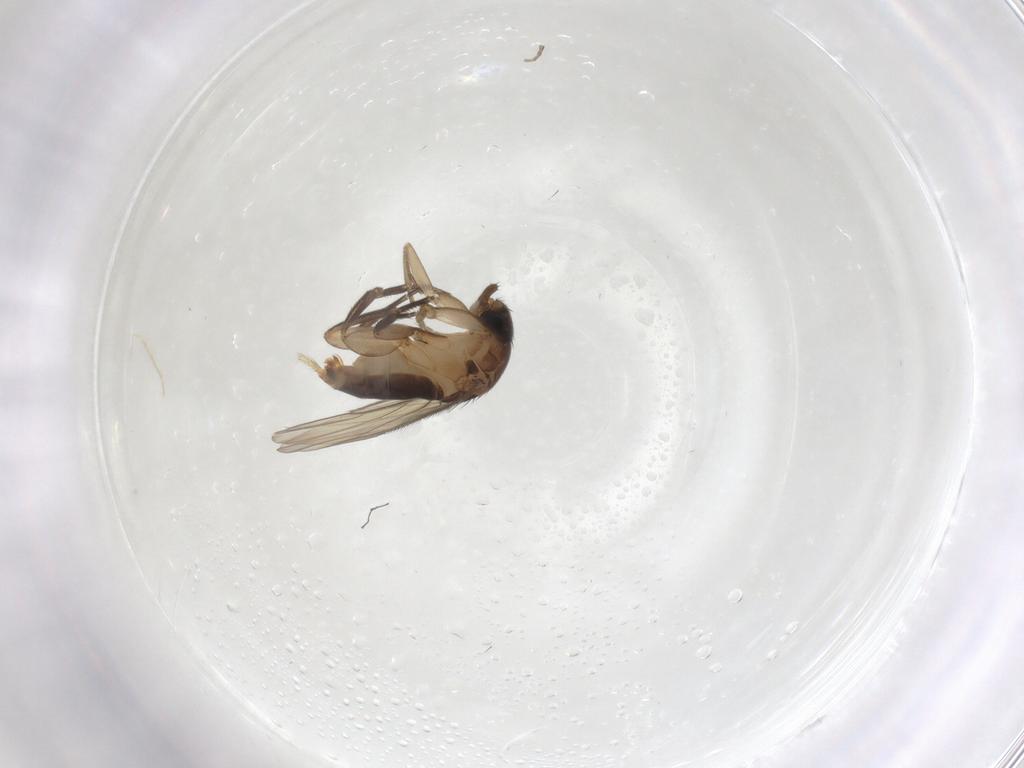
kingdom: Animalia
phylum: Arthropoda
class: Insecta
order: Diptera
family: Phoridae
